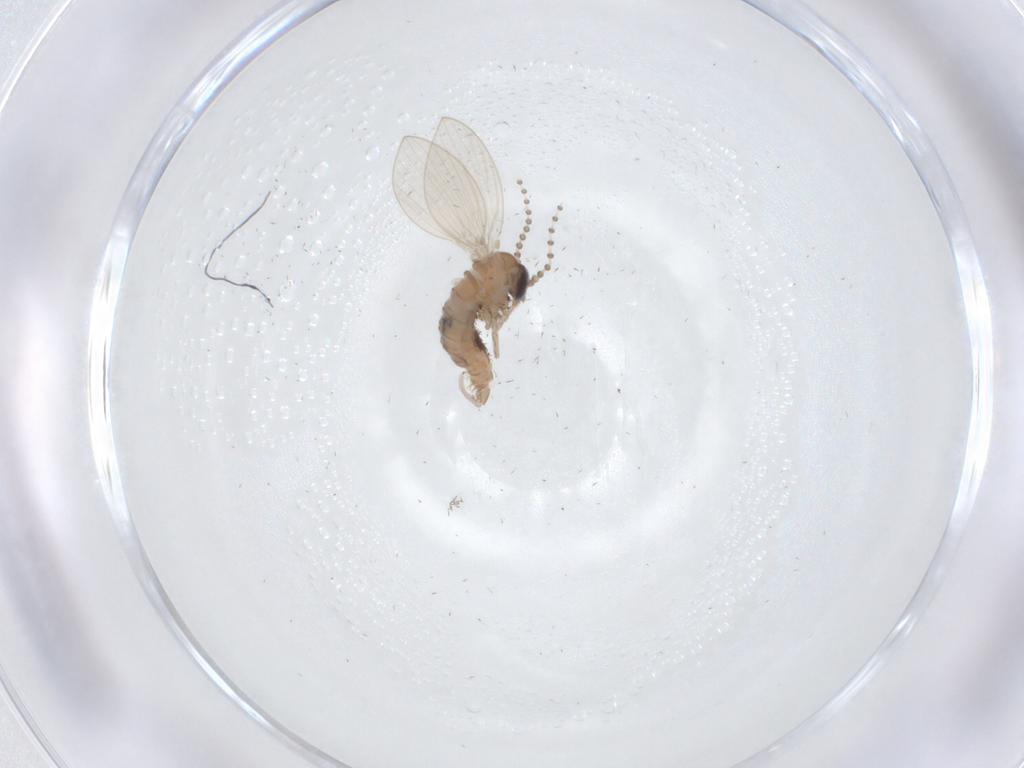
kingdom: Animalia
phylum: Arthropoda
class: Insecta
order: Diptera
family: Psychodidae
